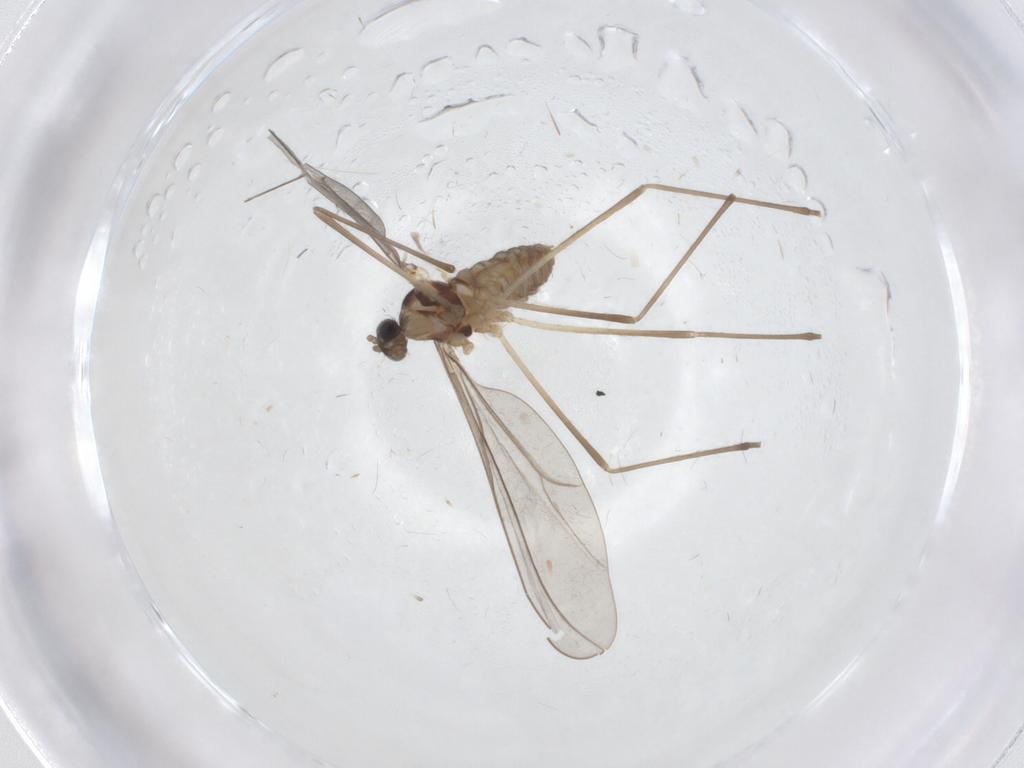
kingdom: Animalia
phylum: Arthropoda
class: Insecta
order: Diptera
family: Cecidomyiidae
